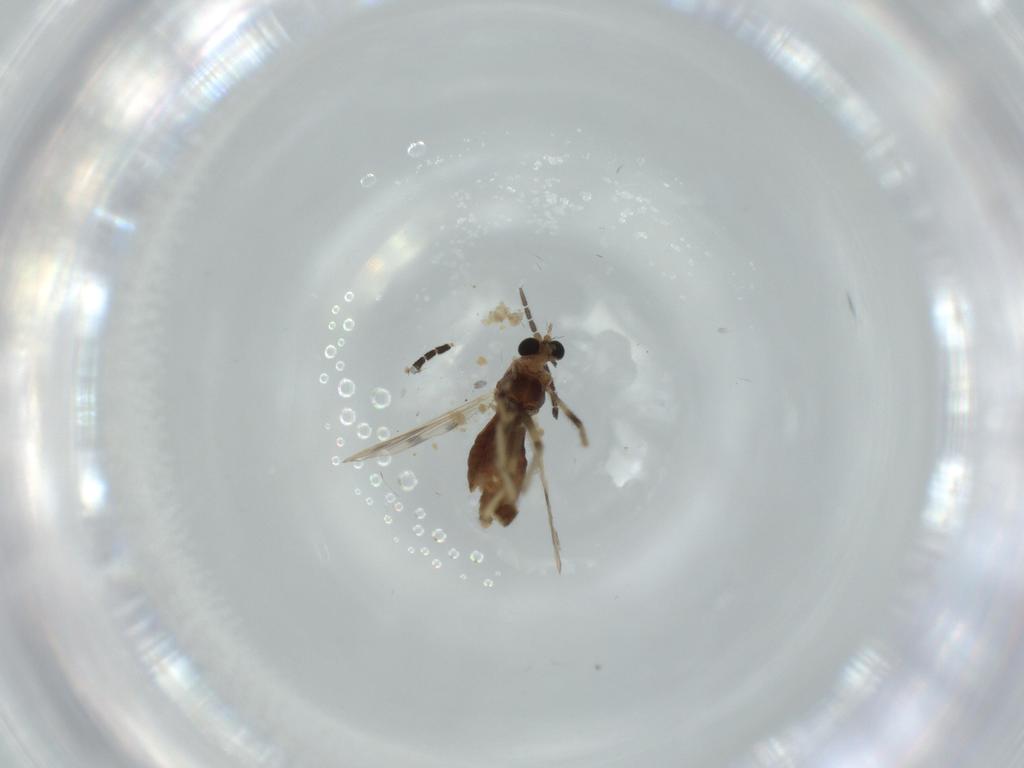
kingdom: Animalia
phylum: Arthropoda
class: Insecta
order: Diptera
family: Chironomidae
